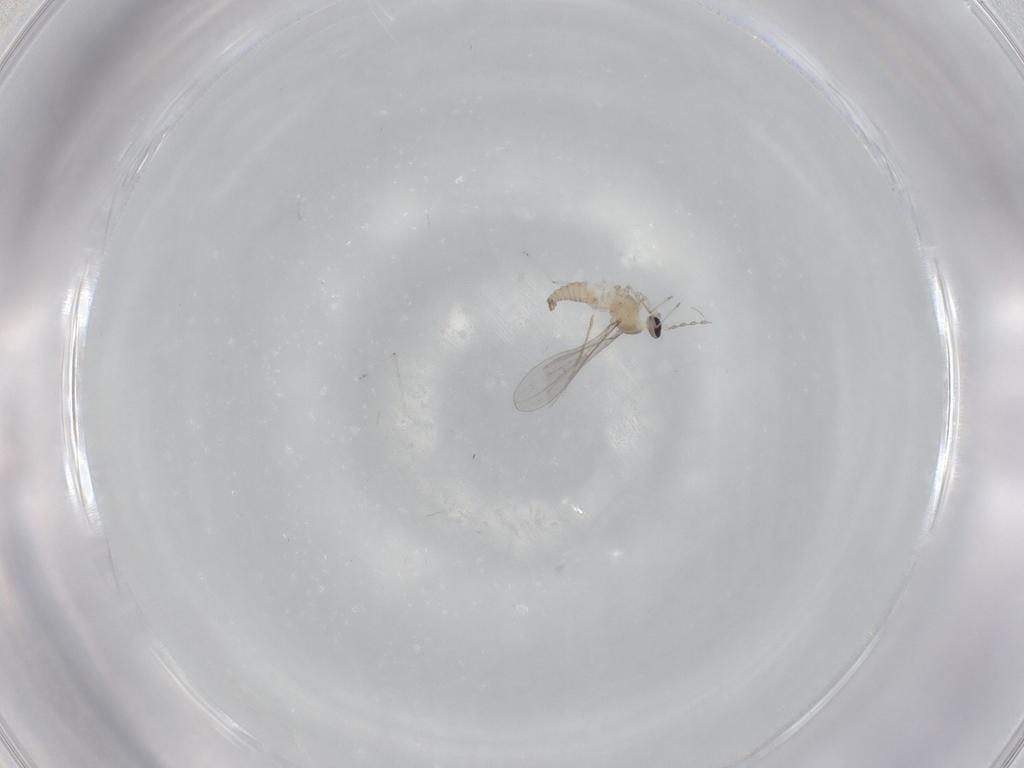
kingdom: Animalia
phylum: Arthropoda
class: Insecta
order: Diptera
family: Cecidomyiidae
